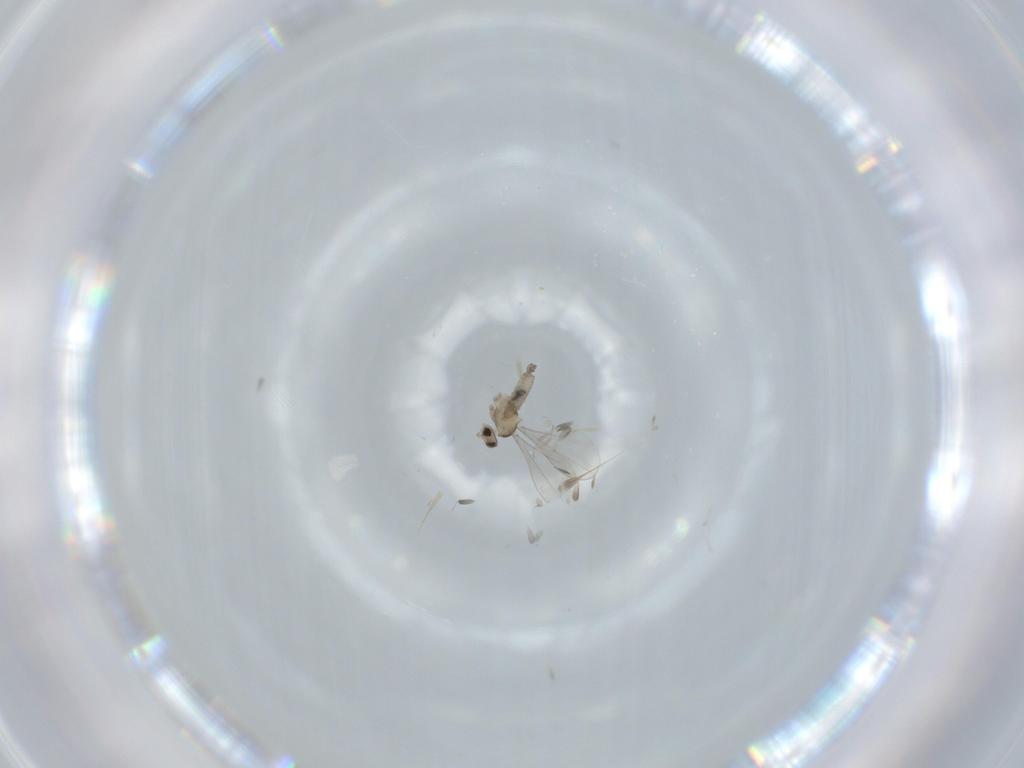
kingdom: Animalia
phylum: Arthropoda
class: Insecta
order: Diptera
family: Cecidomyiidae
